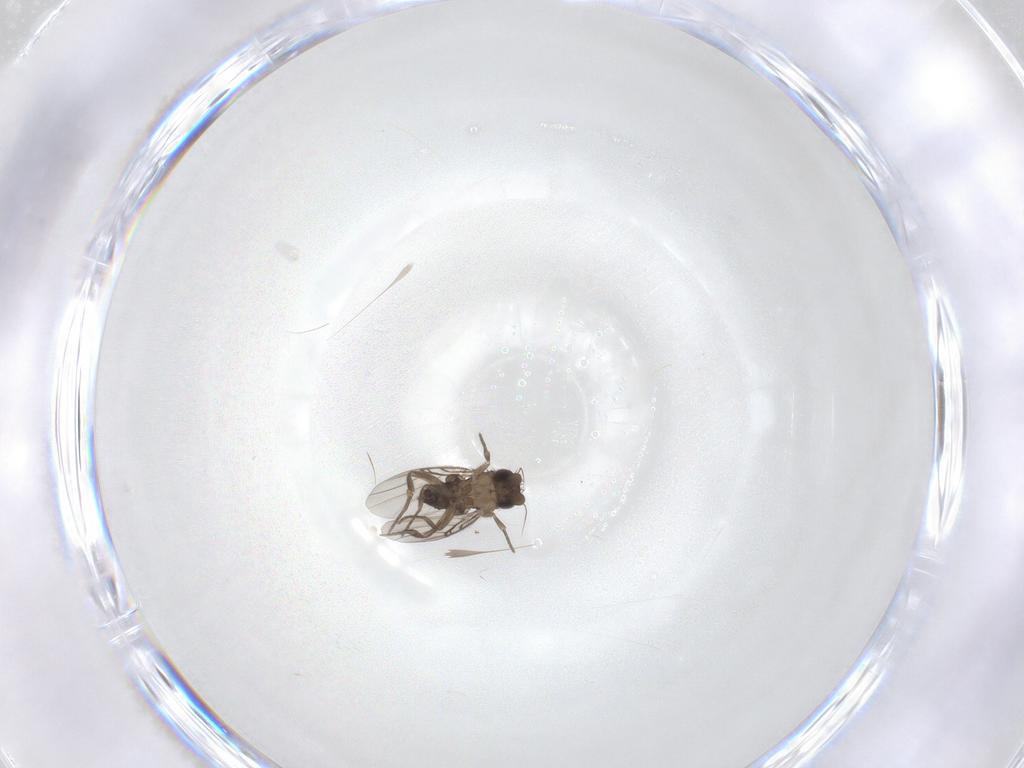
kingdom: Animalia
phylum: Arthropoda
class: Insecta
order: Diptera
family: Phoridae
